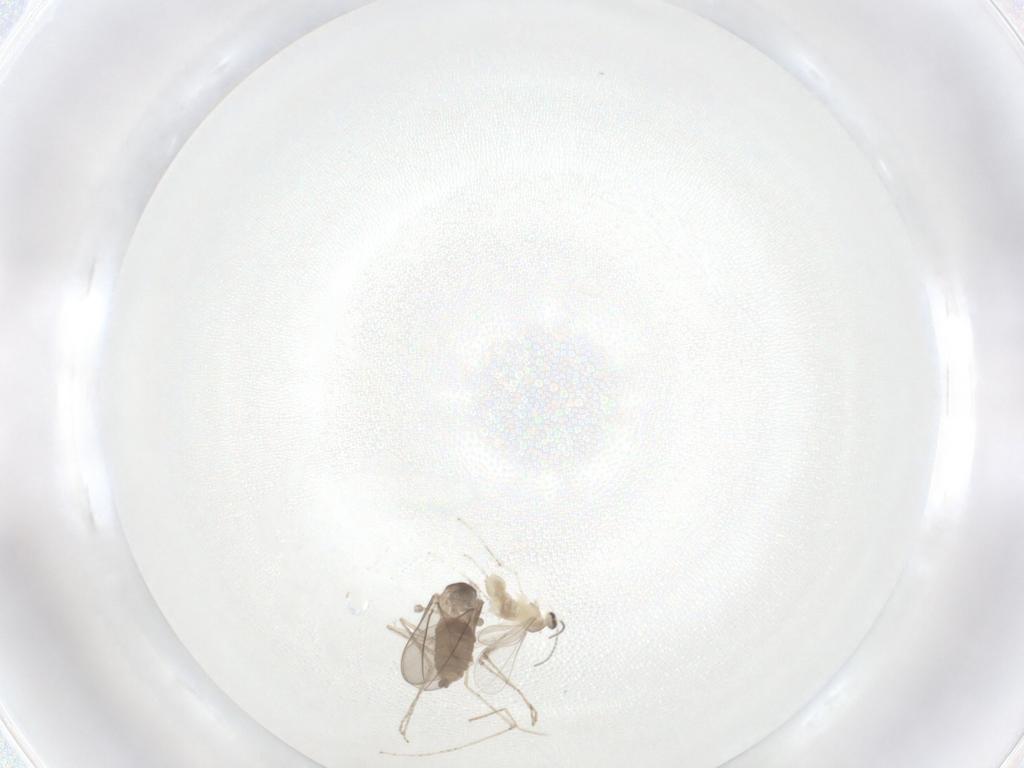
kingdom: Animalia
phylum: Arthropoda
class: Insecta
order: Diptera
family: Cecidomyiidae
